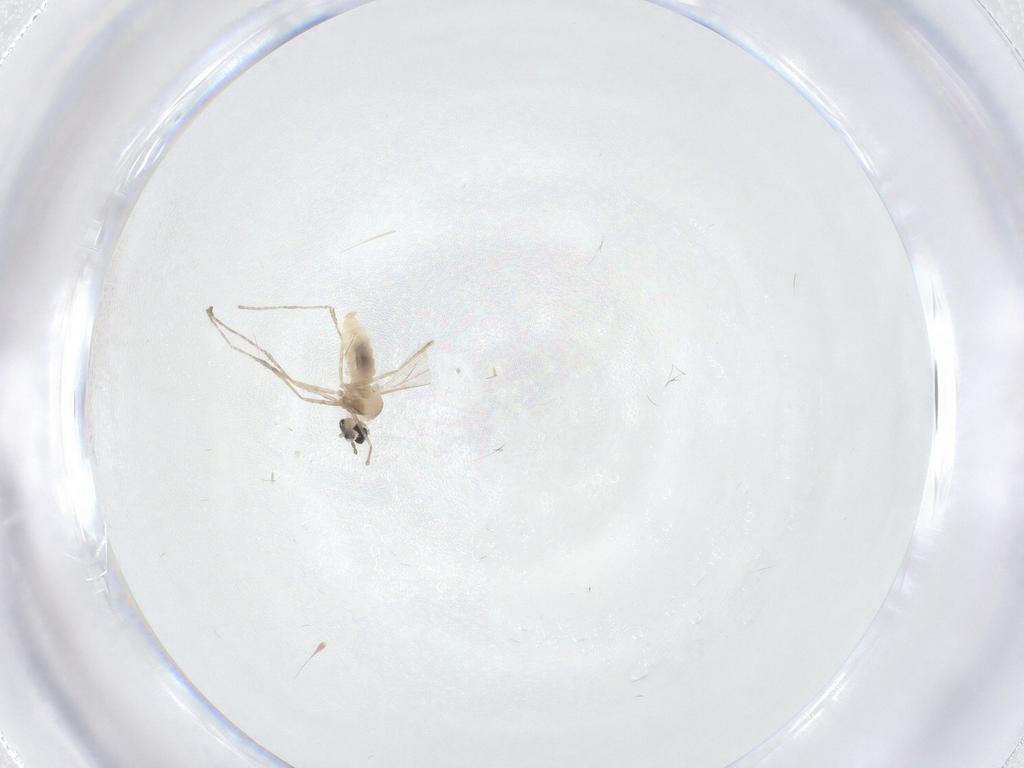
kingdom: Animalia
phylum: Arthropoda
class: Insecta
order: Diptera
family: Cecidomyiidae
